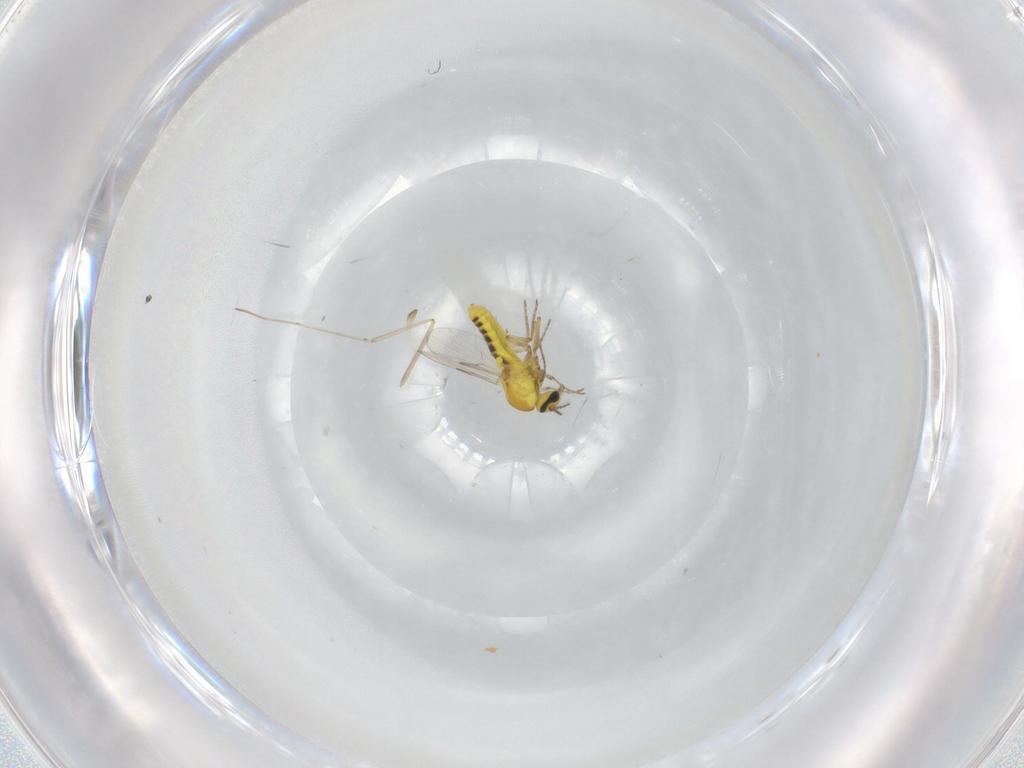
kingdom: Animalia
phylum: Arthropoda
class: Insecta
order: Diptera
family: Ceratopogonidae
